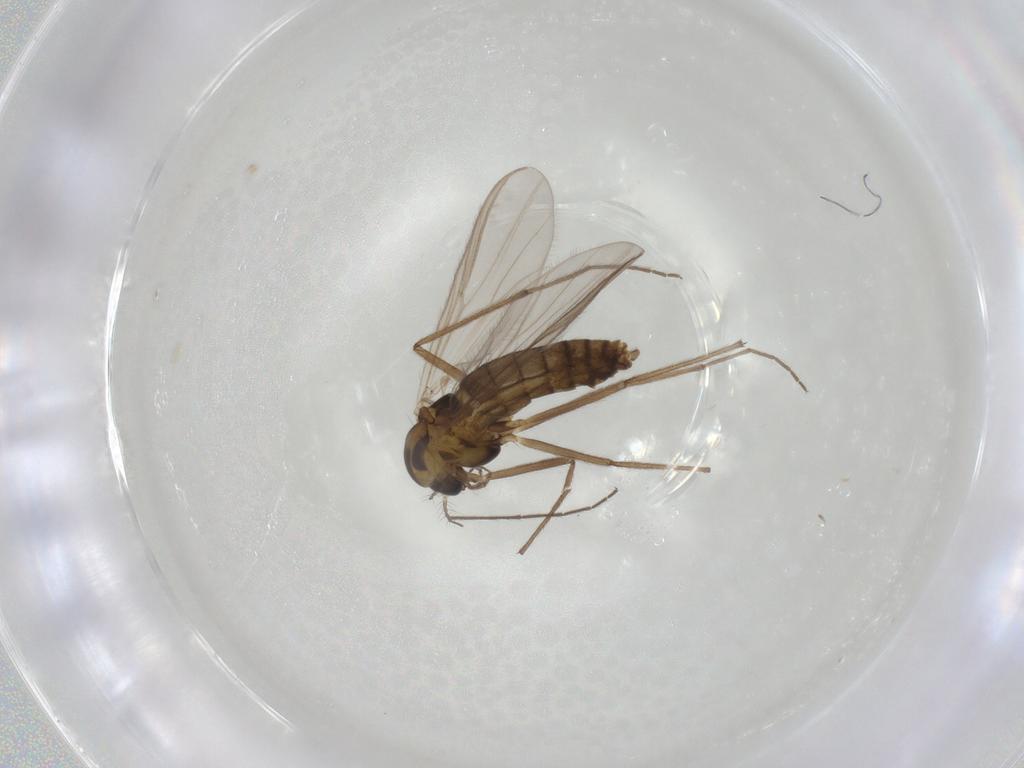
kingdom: Animalia
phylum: Arthropoda
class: Insecta
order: Diptera
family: Chironomidae
